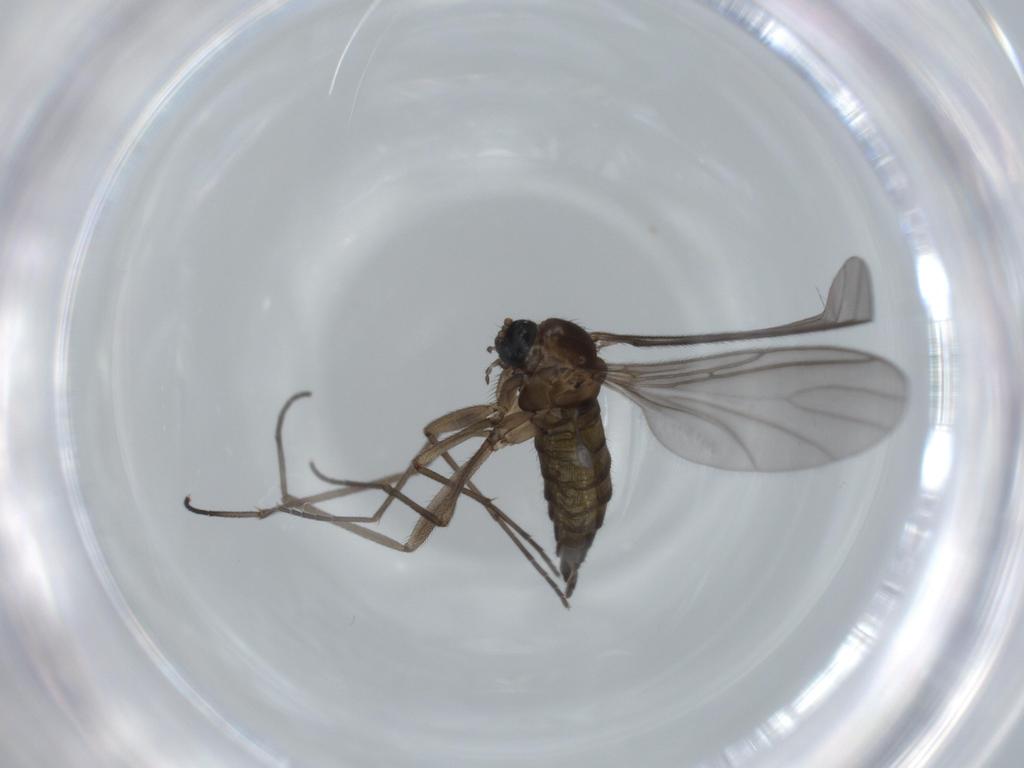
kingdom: Animalia
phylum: Arthropoda
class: Insecta
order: Diptera
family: Sciaridae
